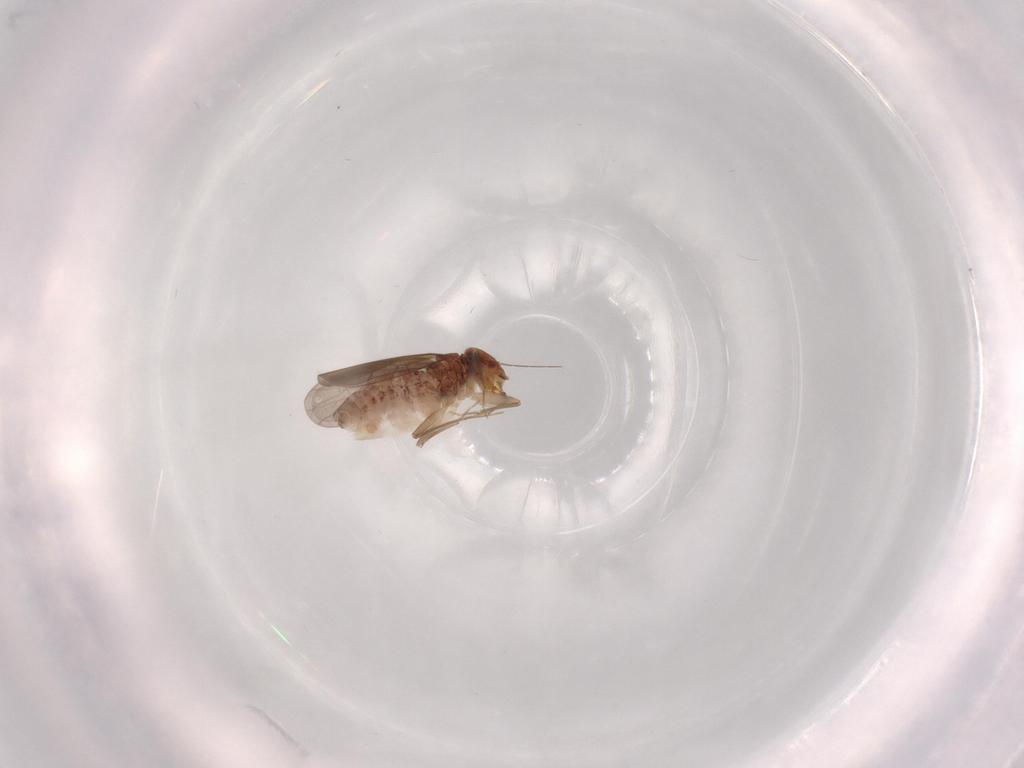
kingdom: Animalia
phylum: Arthropoda
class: Insecta
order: Psocodea
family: Lepidopsocidae
